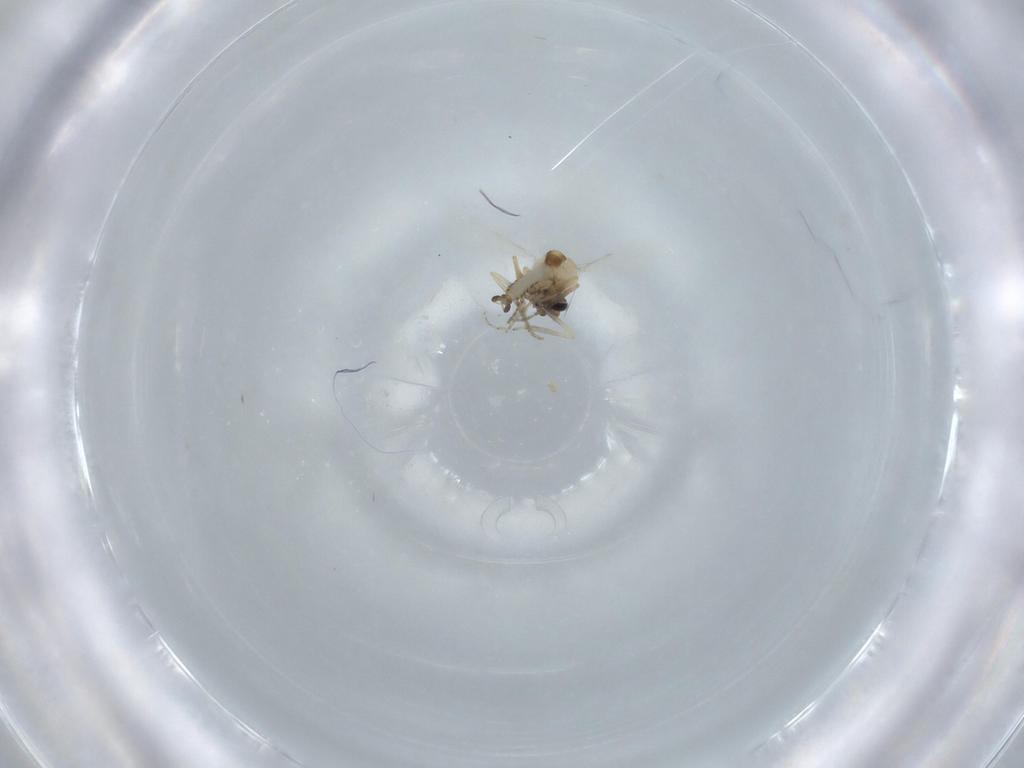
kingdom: Animalia
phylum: Arthropoda
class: Insecta
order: Diptera
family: Ceratopogonidae
